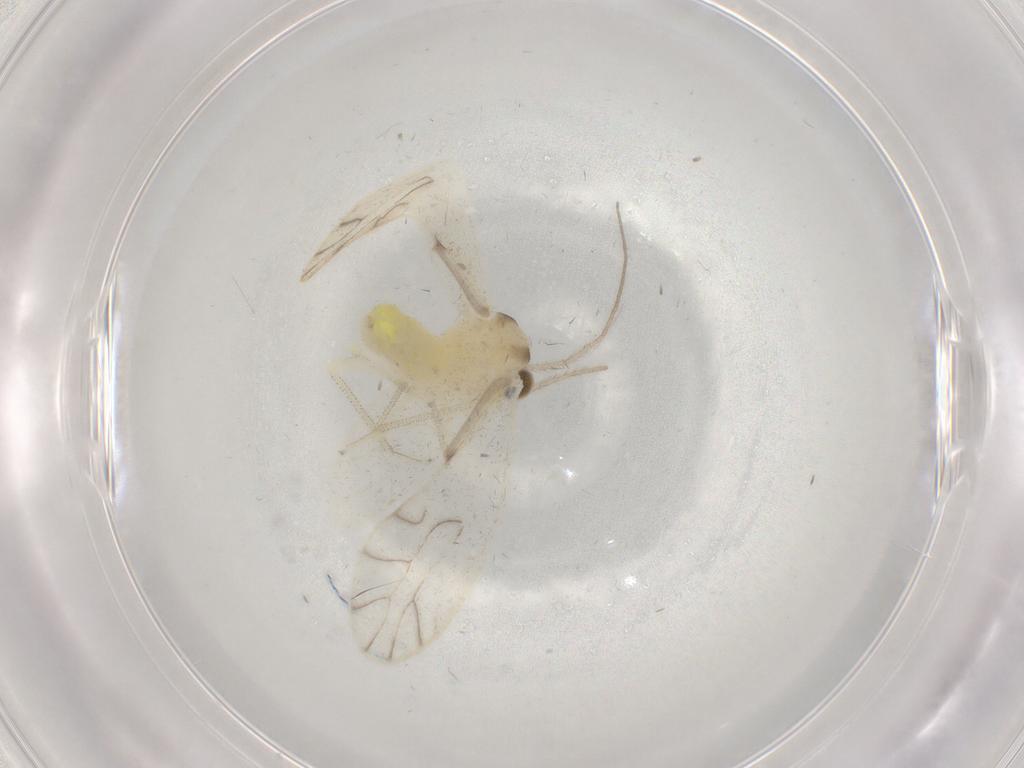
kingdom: Animalia
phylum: Arthropoda
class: Insecta
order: Psocodea
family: Caeciliusidae
